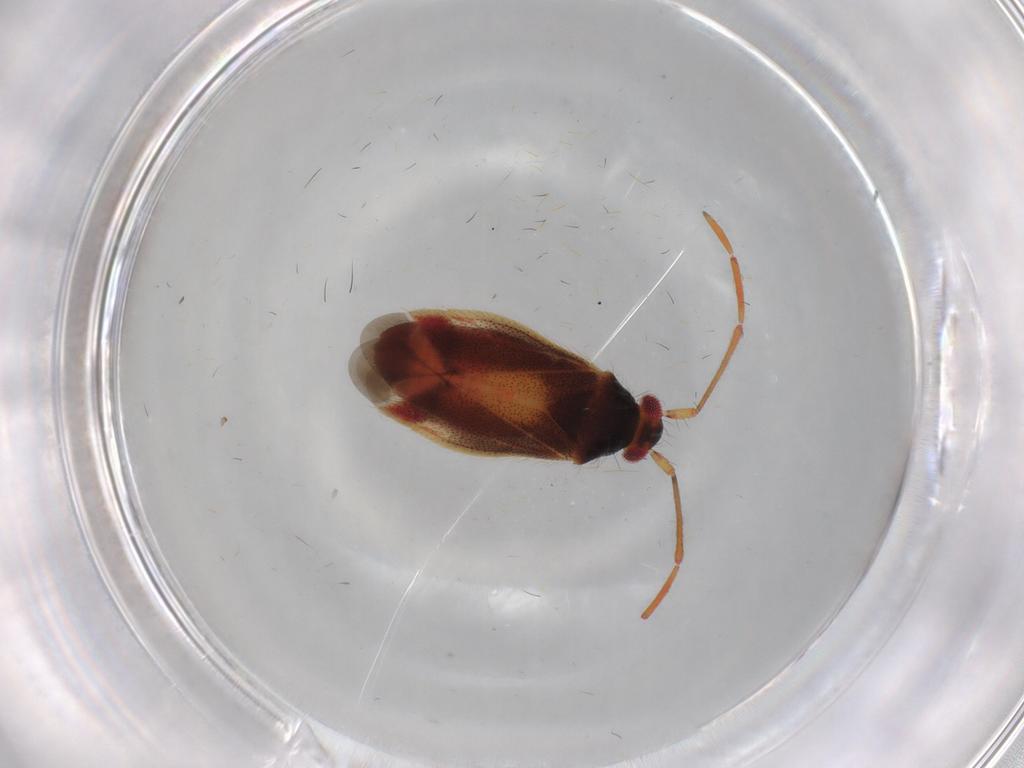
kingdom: Animalia
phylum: Arthropoda
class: Insecta
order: Hemiptera
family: Miridae
